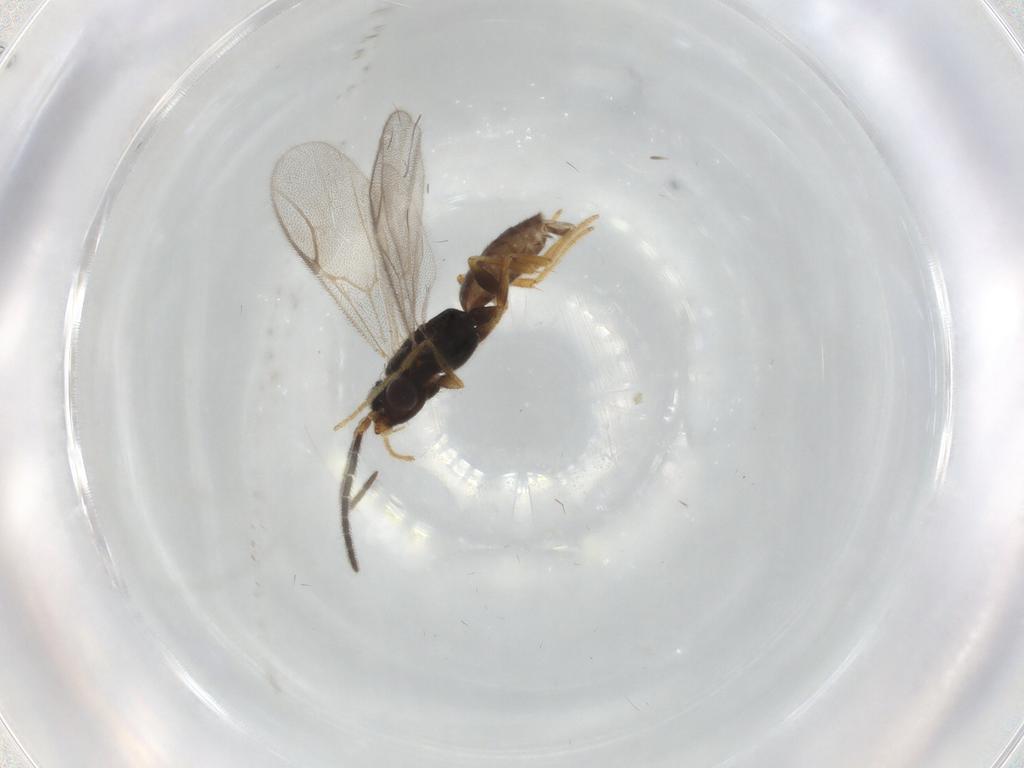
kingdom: Animalia
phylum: Arthropoda
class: Insecta
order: Hymenoptera
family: Dryinidae
